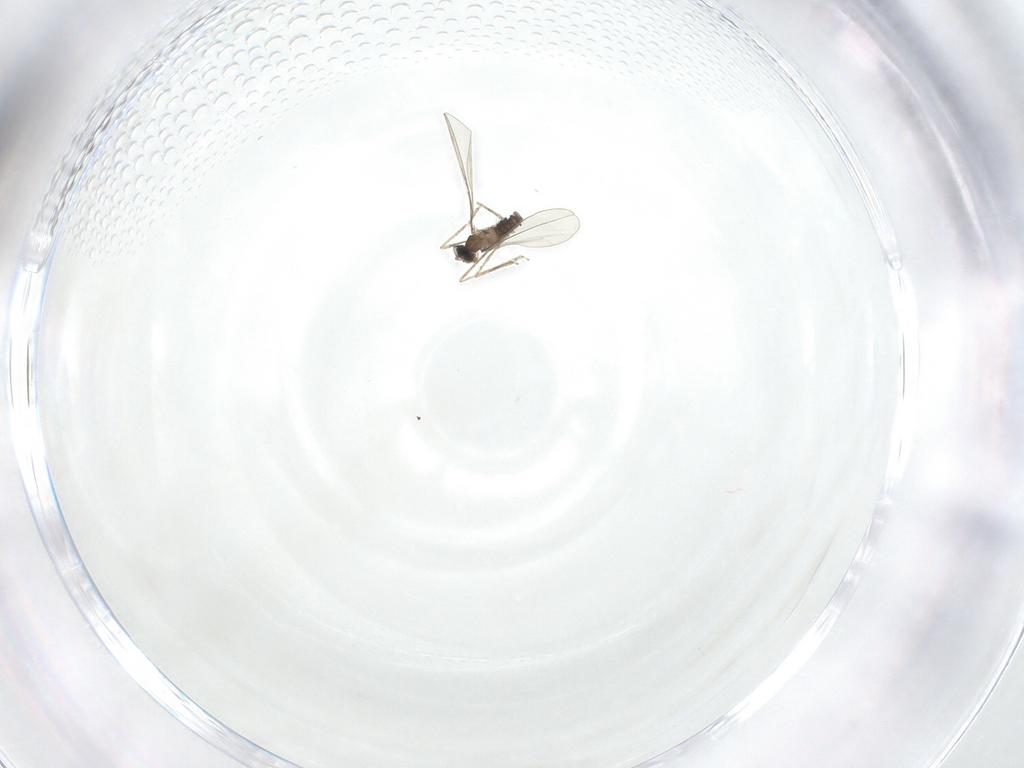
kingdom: Animalia
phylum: Arthropoda
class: Insecta
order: Diptera
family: Cecidomyiidae
